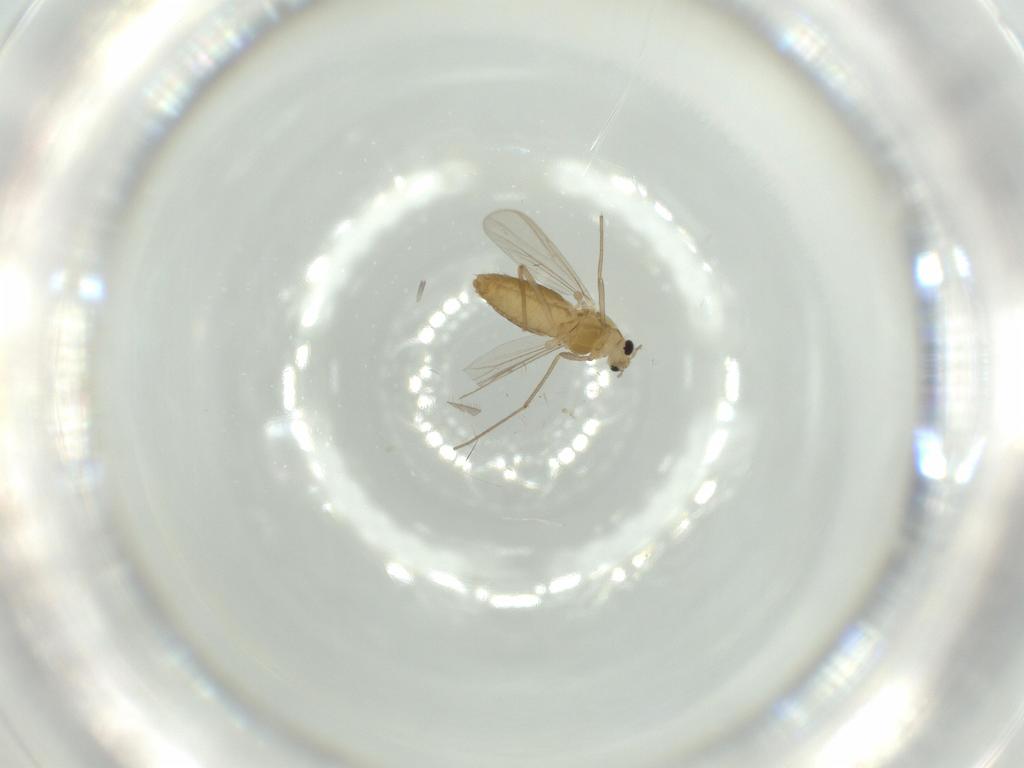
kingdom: Animalia
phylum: Arthropoda
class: Insecta
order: Diptera
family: Chironomidae
